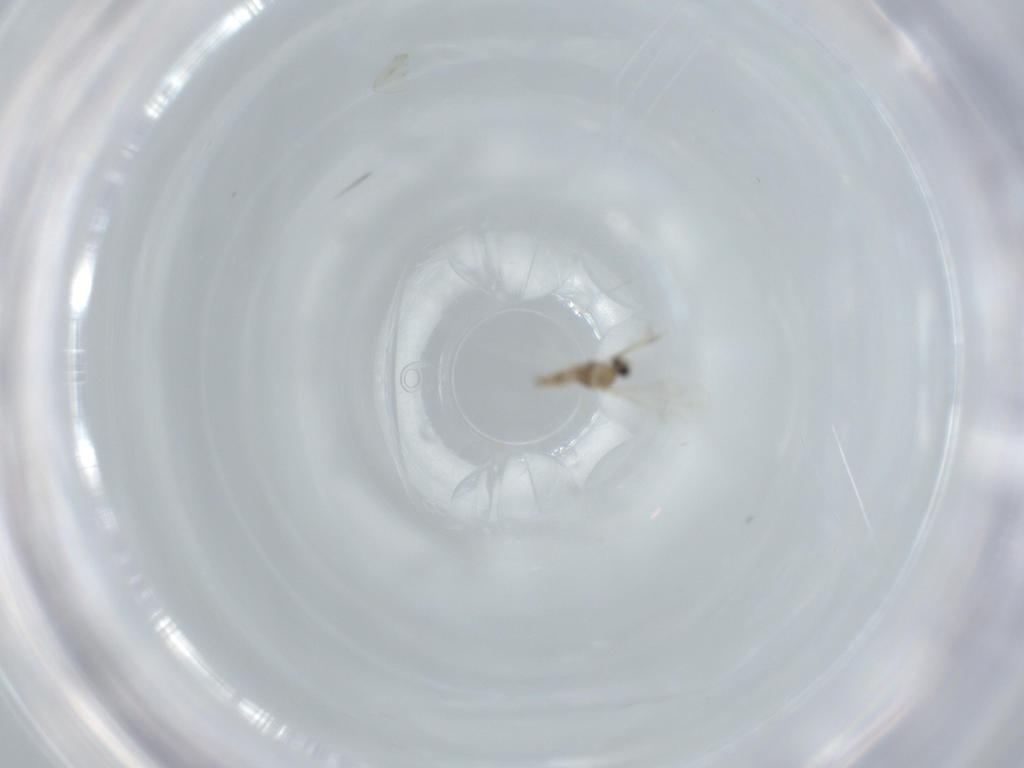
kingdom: Animalia
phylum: Arthropoda
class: Insecta
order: Diptera
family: Cecidomyiidae
